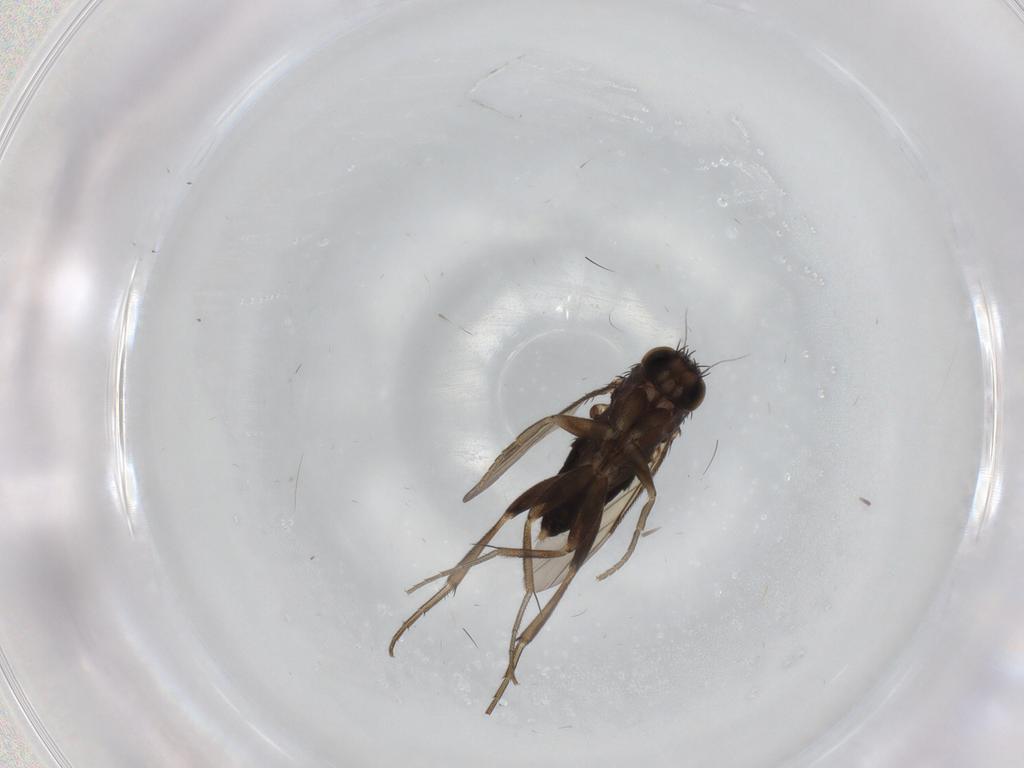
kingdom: Animalia
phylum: Arthropoda
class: Insecta
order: Diptera
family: Phoridae
